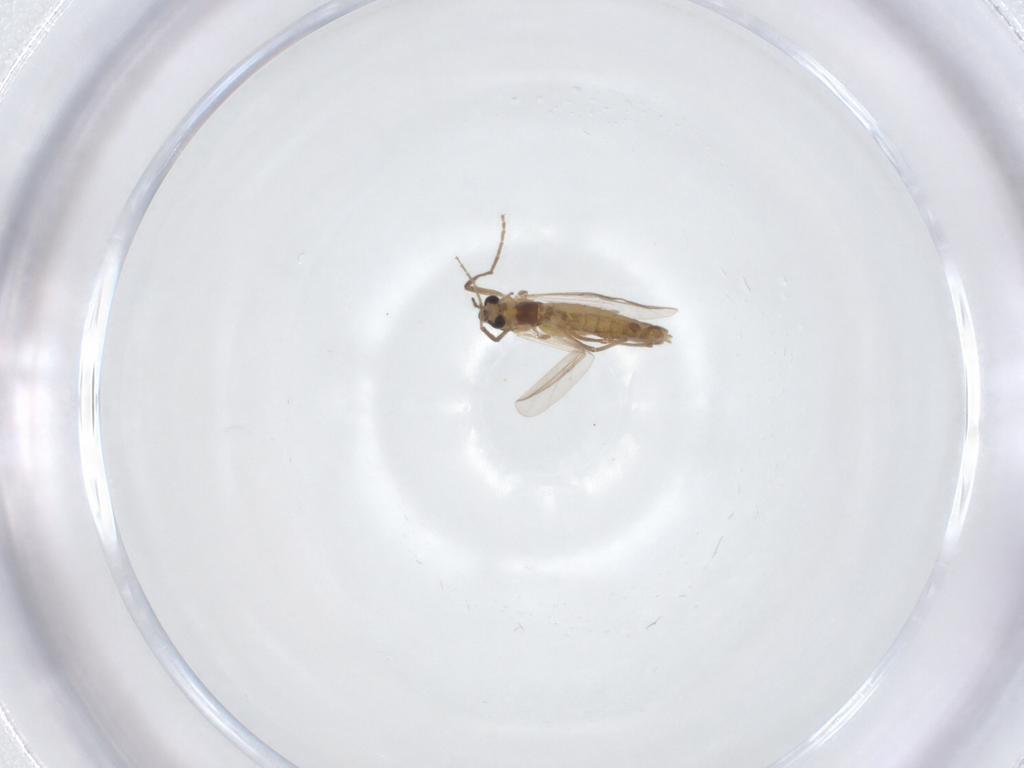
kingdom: Animalia
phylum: Arthropoda
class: Insecta
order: Diptera
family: Chironomidae
